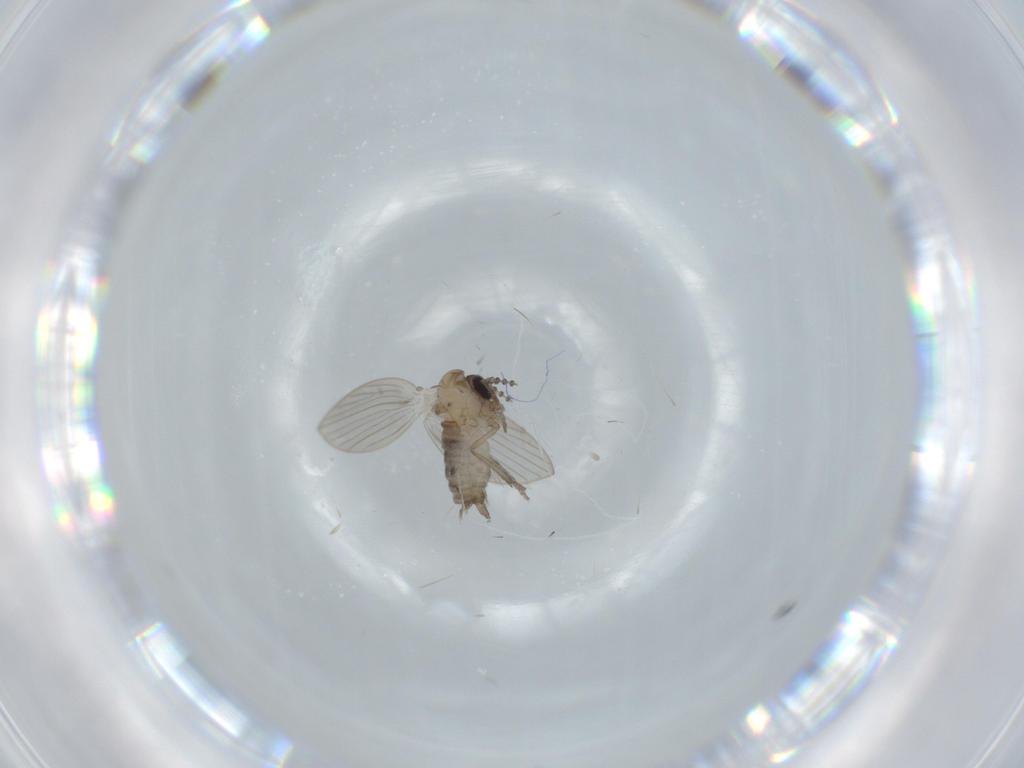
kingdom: Animalia
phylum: Arthropoda
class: Insecta
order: Diptera
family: Psychodidae
